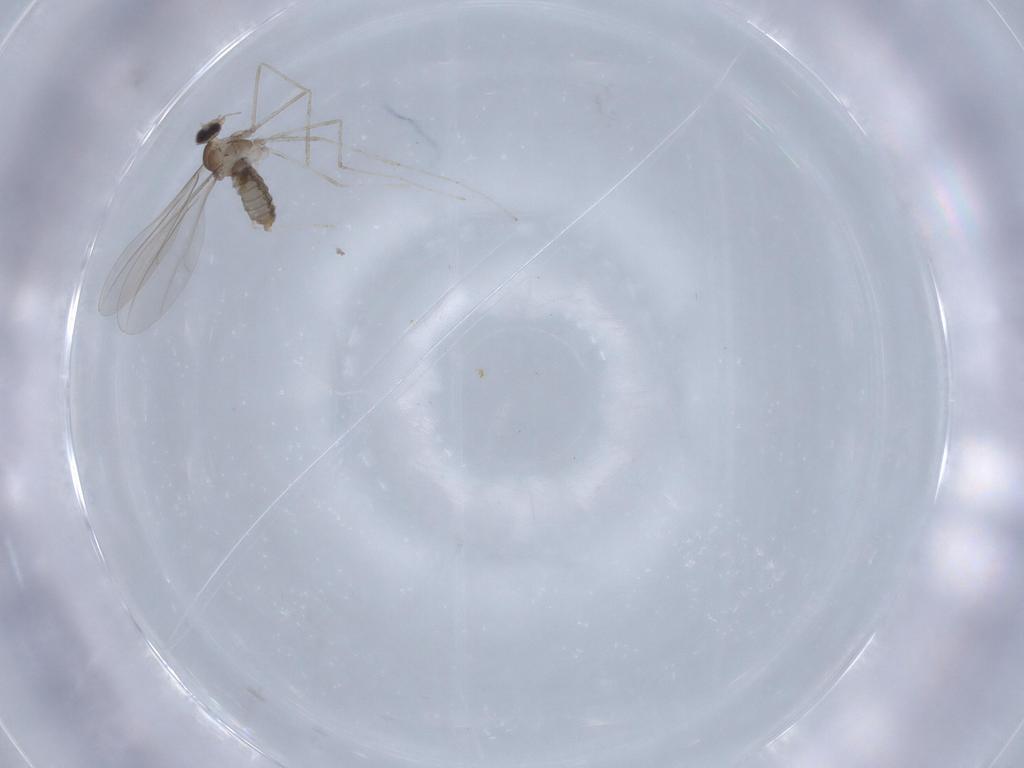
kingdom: Animalia
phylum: Arthropoda
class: Insecta
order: Diptera
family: Cecidomyiidae
